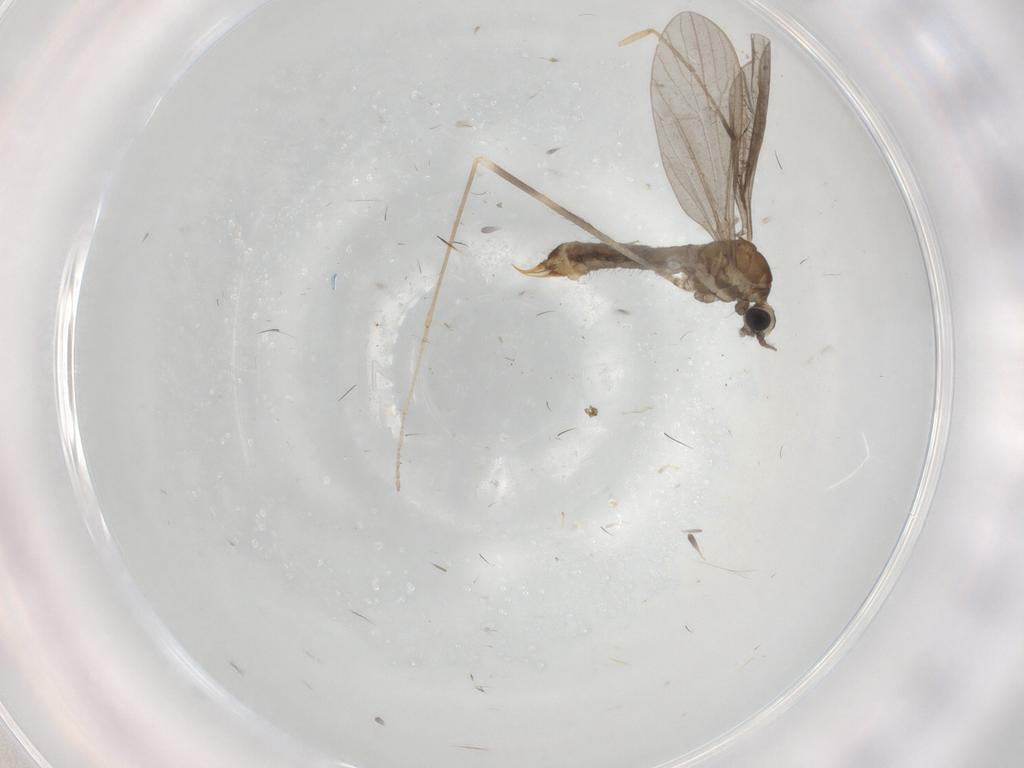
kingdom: Animalia
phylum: Arthropoda
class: Insecta
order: Diptera
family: Limoniidae
